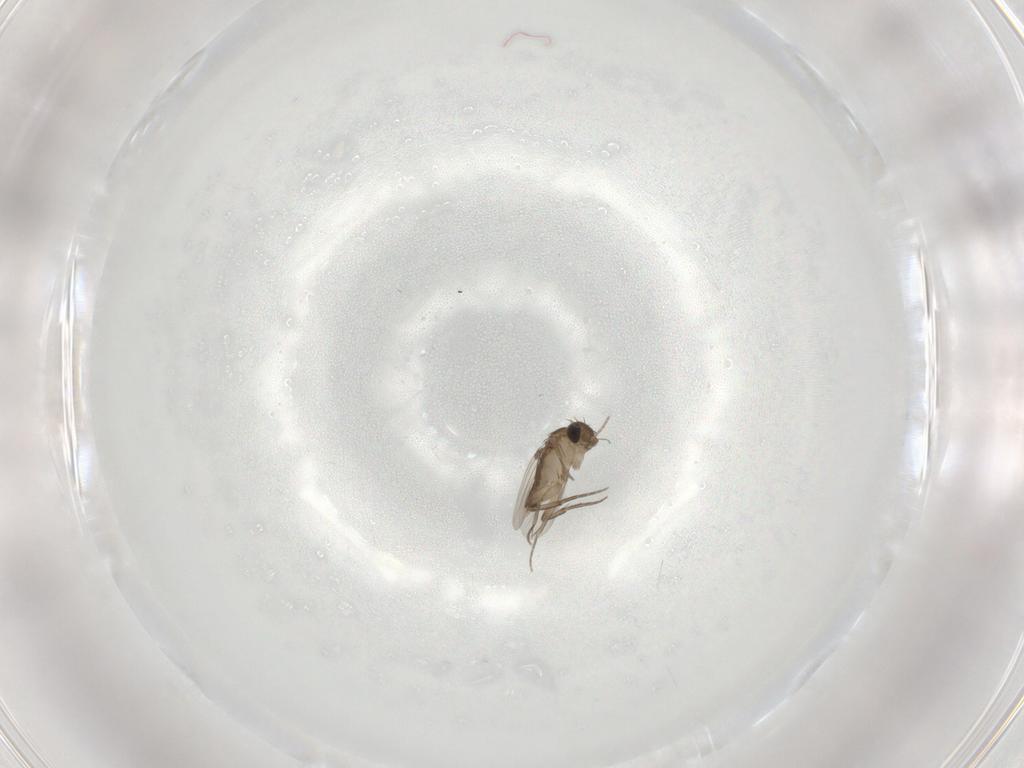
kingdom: Animalia
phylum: Arthropoda
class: Insecta
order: Diptera
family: Phoridae
